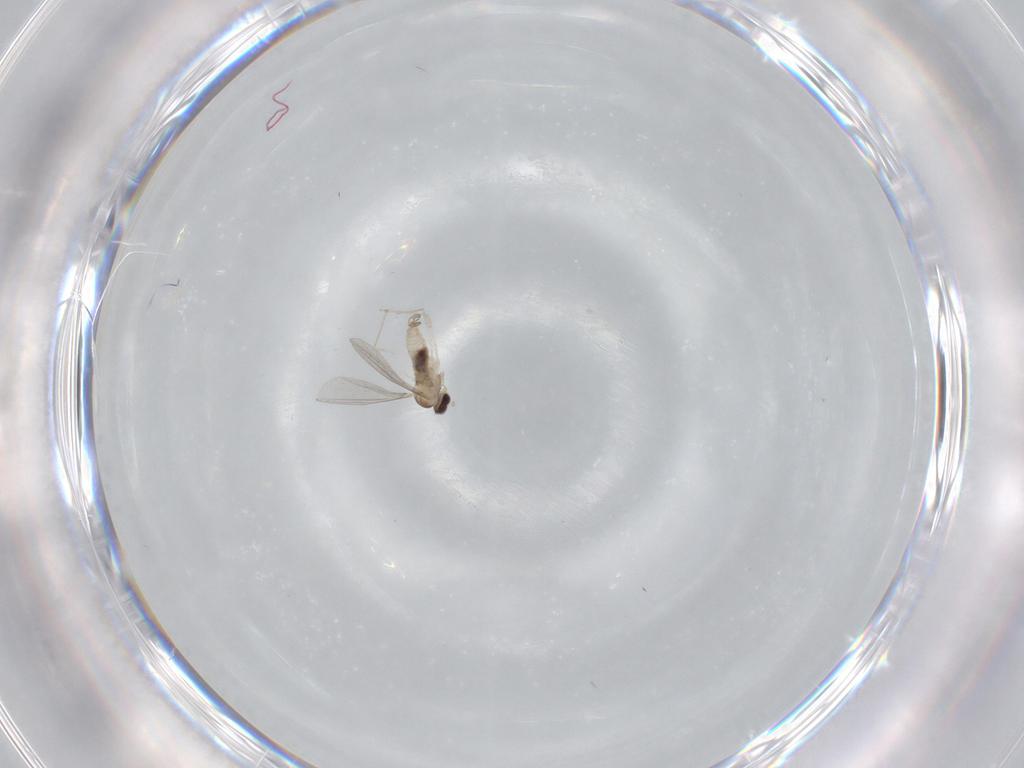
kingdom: Animalia
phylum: Arthropoda
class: Insecta
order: Diptera
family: Cecidomyiidae
